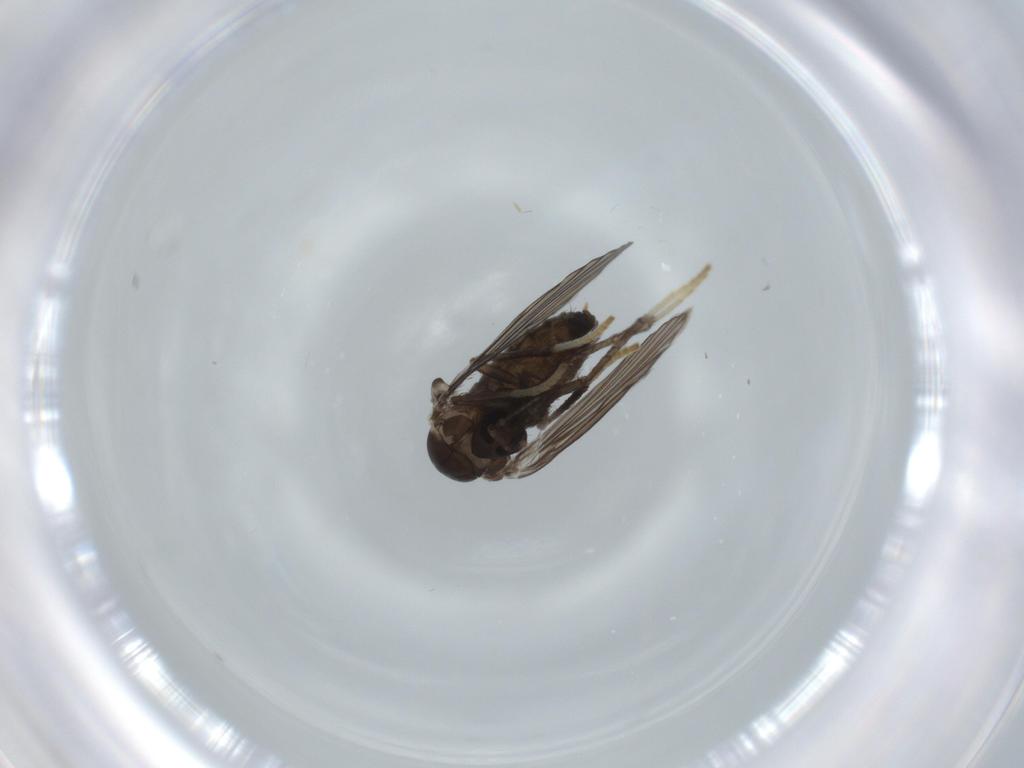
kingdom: Animalia
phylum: Arthropoda
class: Insecta
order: Diptera
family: Psychodidae
